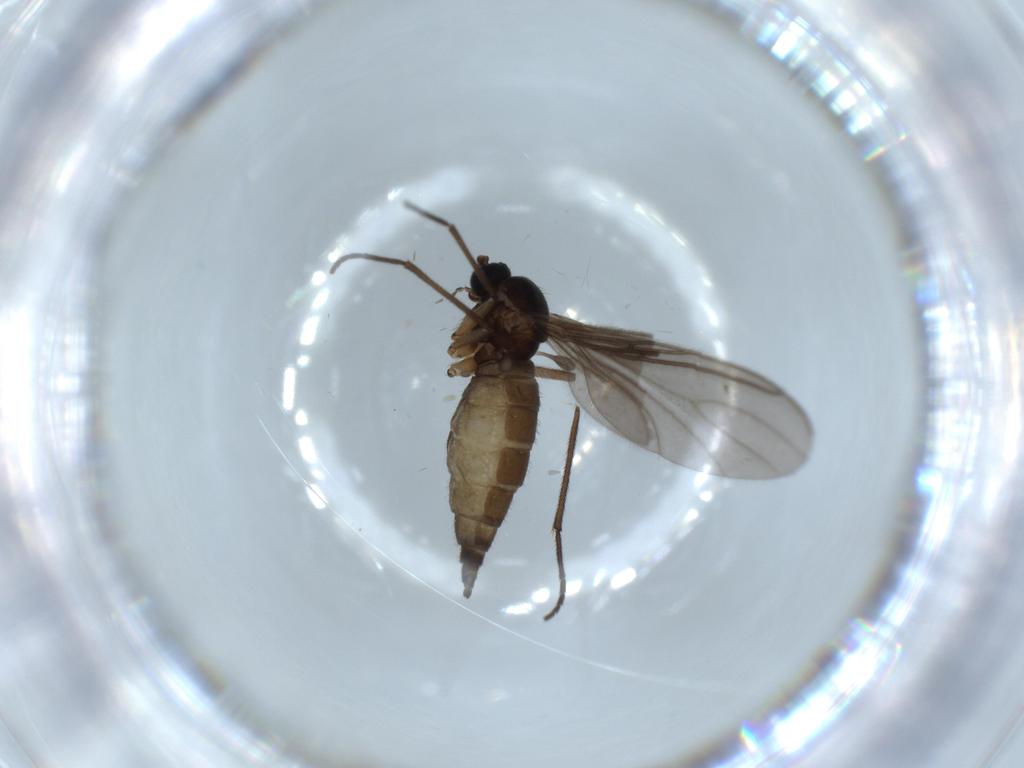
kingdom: Animalia
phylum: Arthropoda
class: Insecta
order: Diptera
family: Sciaridae
